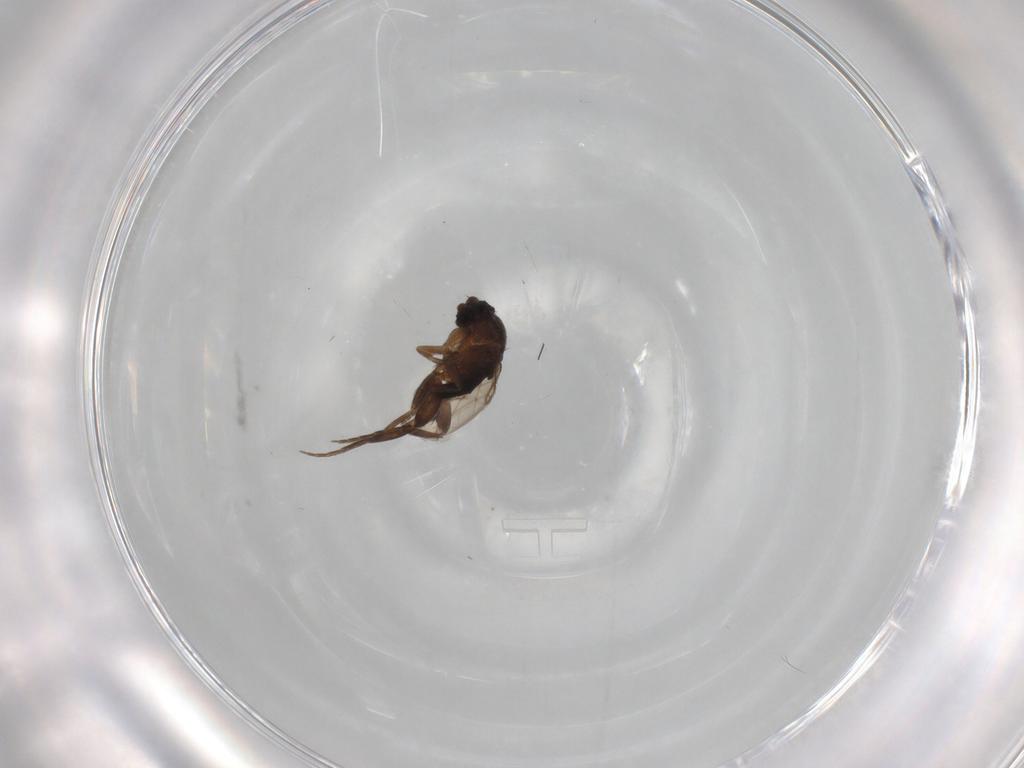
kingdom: Animalia
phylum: Arthropoda
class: Insecta
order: Diptera
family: Phoridae
